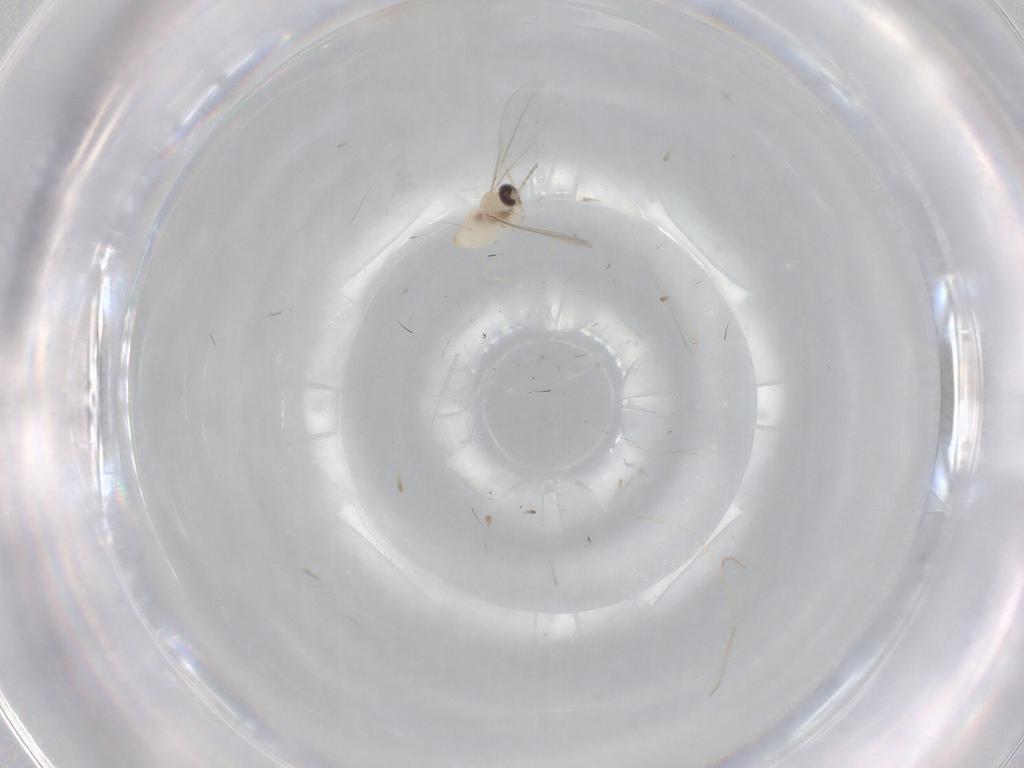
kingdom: Animalia
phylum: Arthropoda
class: Insecta
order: Diptera
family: Cecidomyiidae
